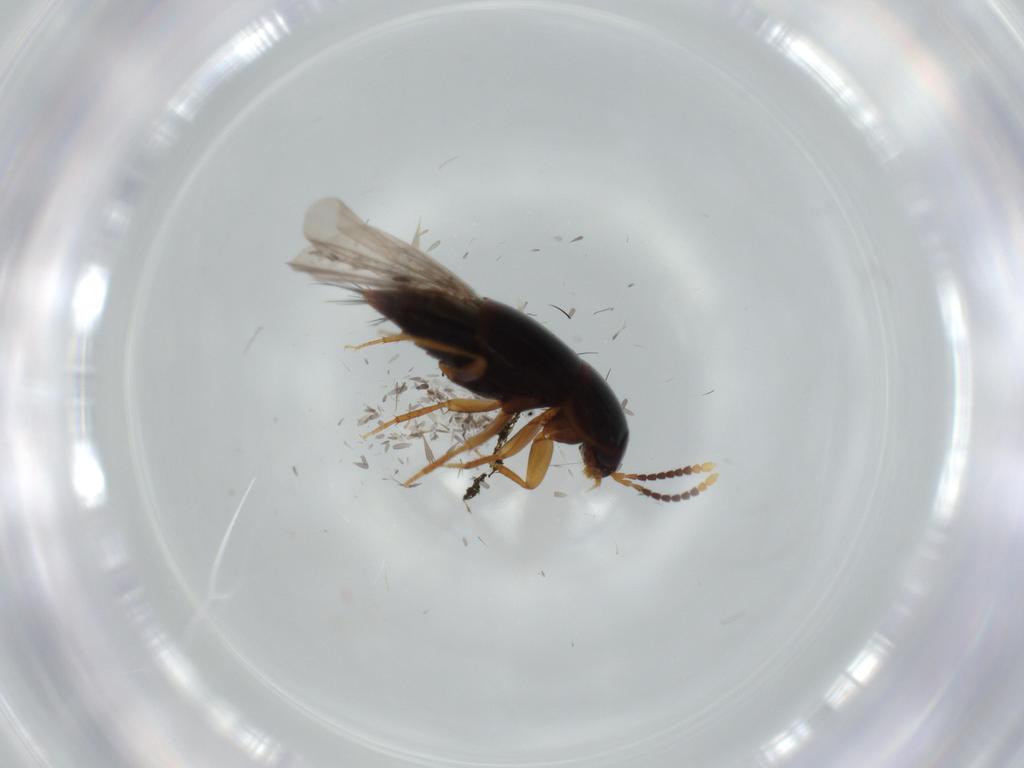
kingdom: Animalia
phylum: Arthropoda
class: Insecta
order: Coleoptera
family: Staphylinidae
